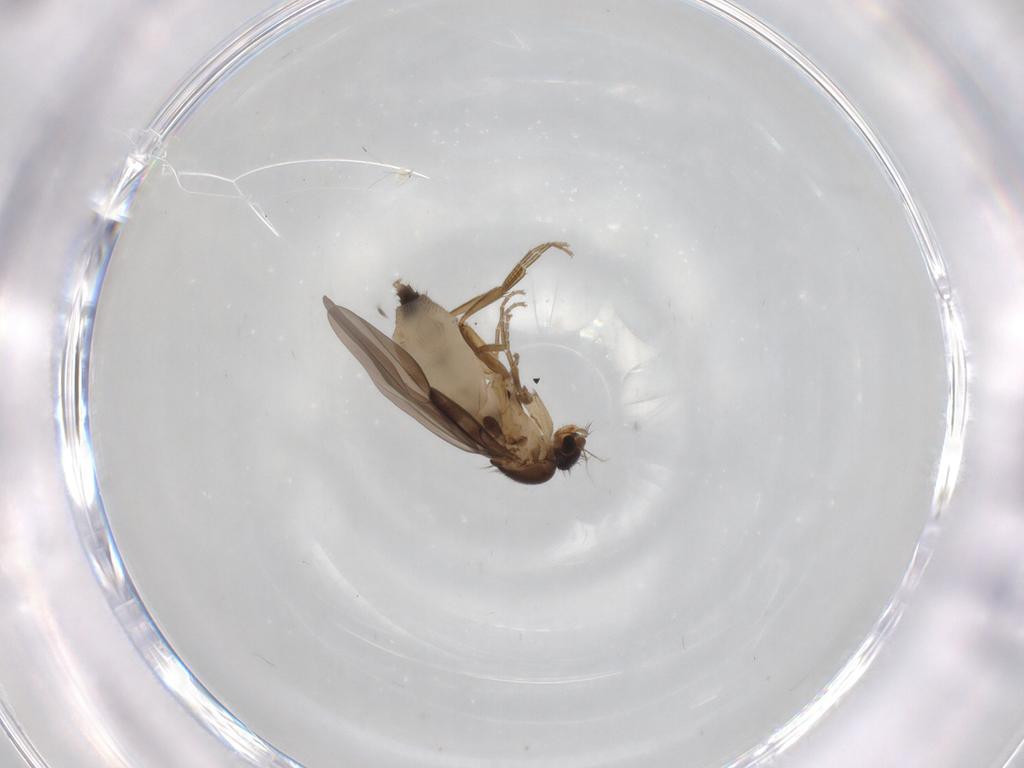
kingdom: Animalia
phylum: Arthropoda
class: Insecta
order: Diptera
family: Phoridae
